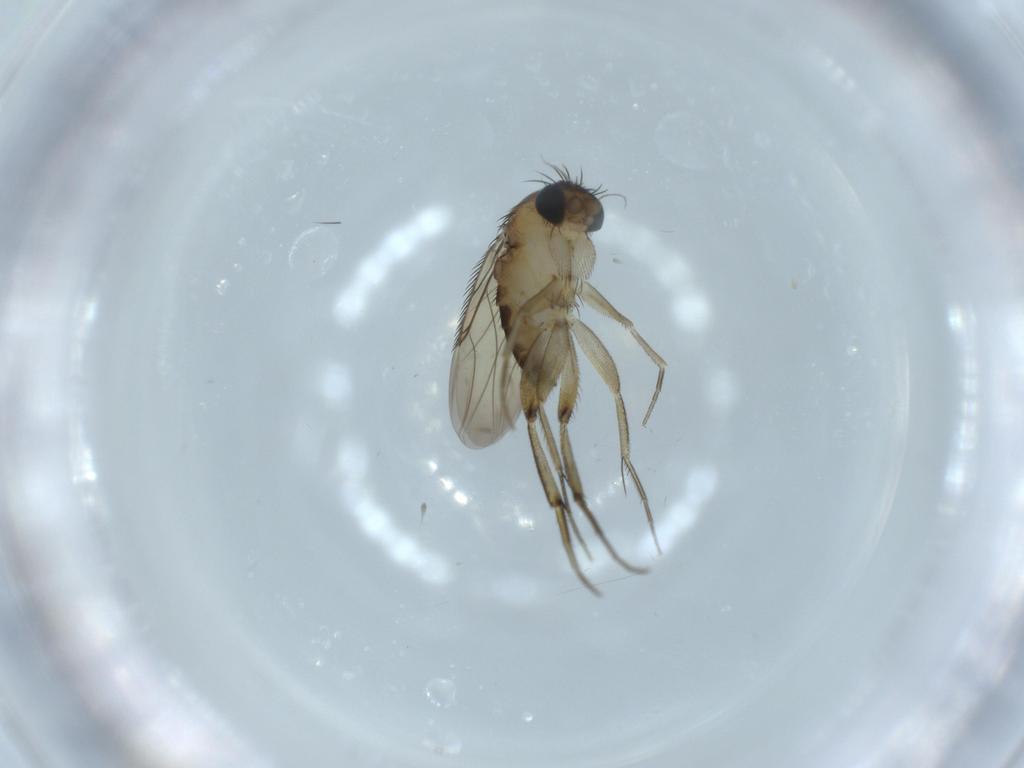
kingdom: Animalia
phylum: Arthropoda
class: Insecta
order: Diptera
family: Phoridae
